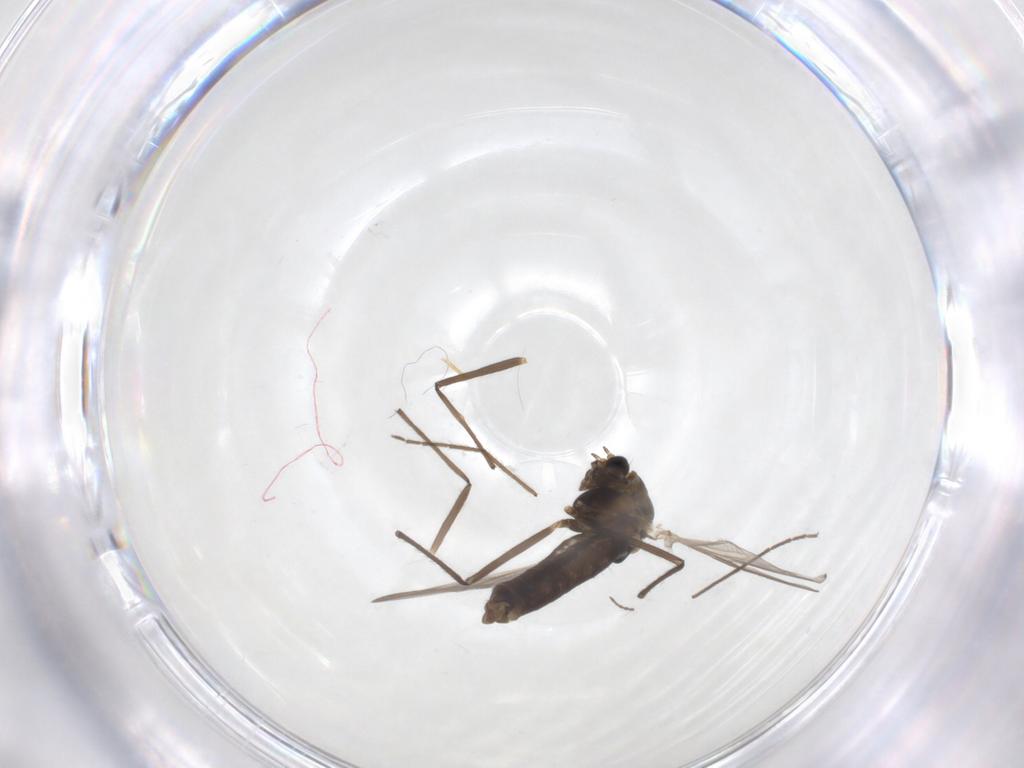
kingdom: Animalia
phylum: Arthropoda
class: Insecta
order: Diptera
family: Chironomidae
